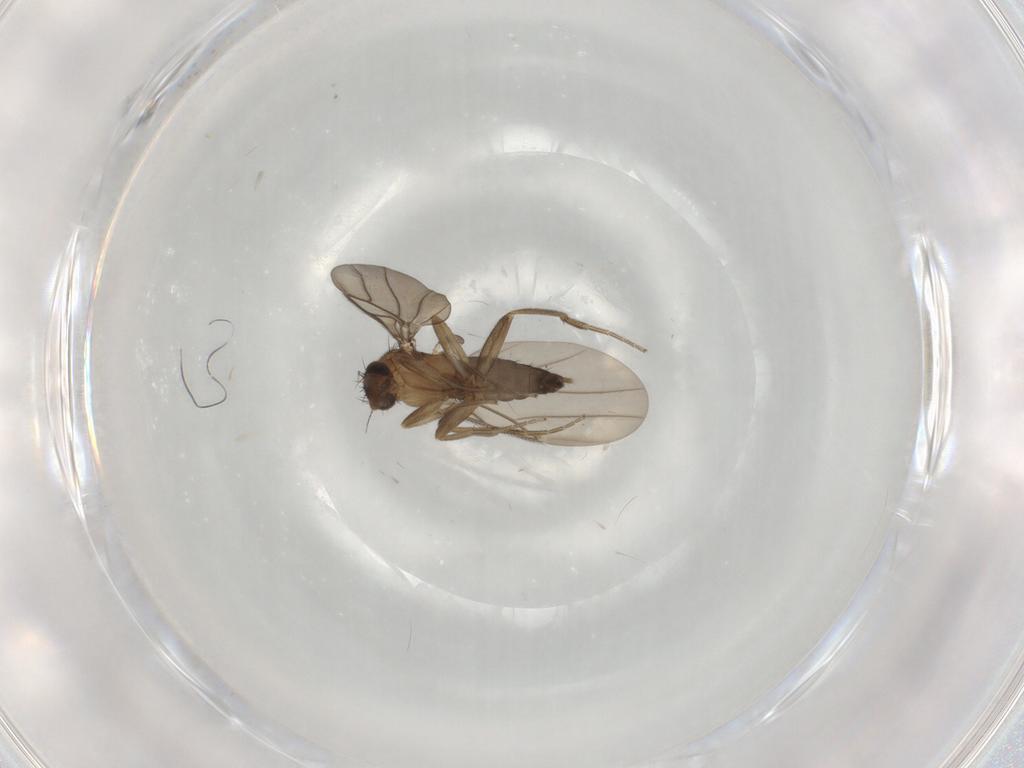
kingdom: Animalia
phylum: Arthropoda
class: Insecta
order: Diptera
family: Phoridae
